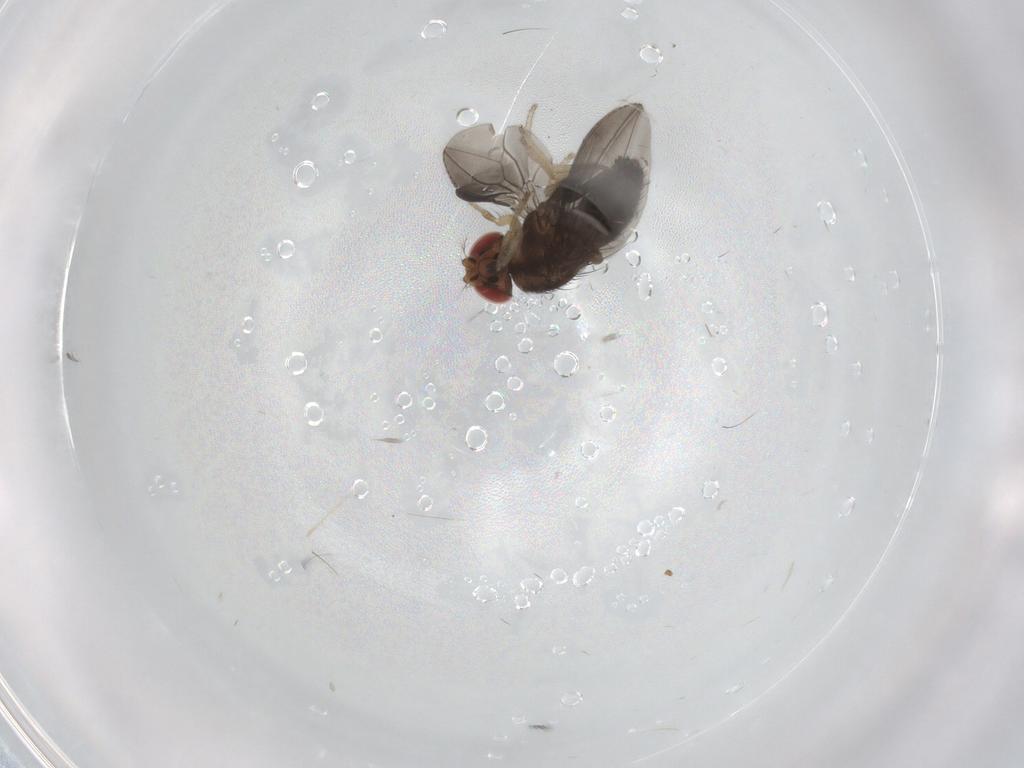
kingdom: Animalia
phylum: Arthropoda
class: Insecta
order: Diptera
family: Drosophilidae
